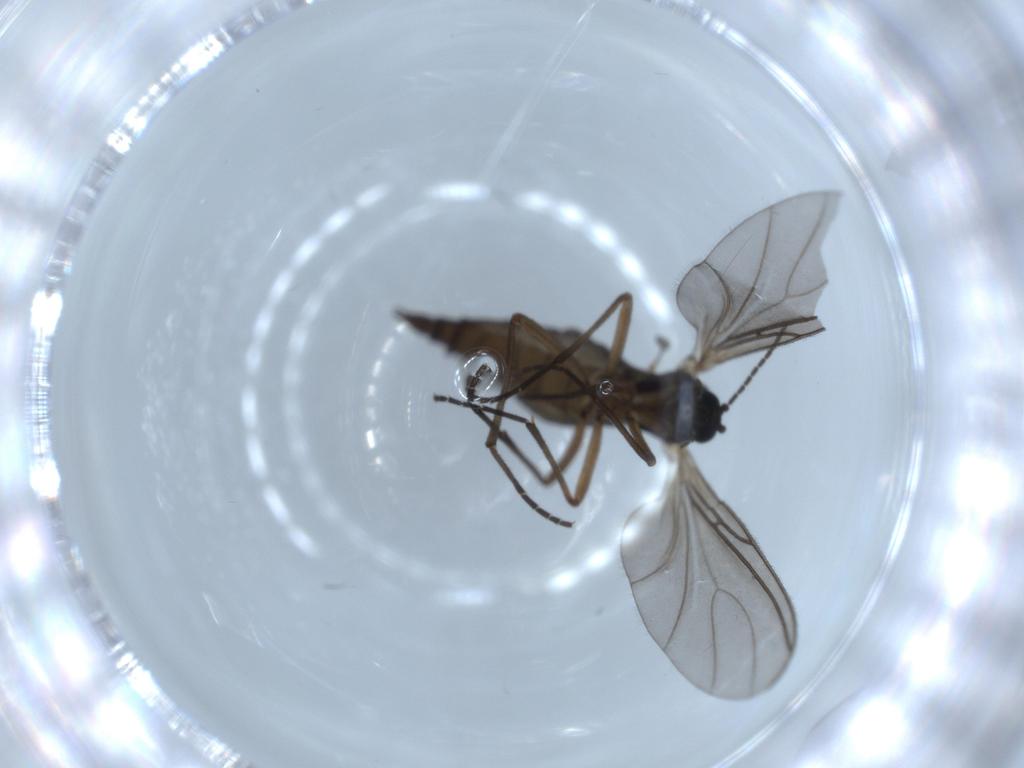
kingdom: Animalia
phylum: Arthropoda
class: Insecta
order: Diptera
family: Sciaridae
